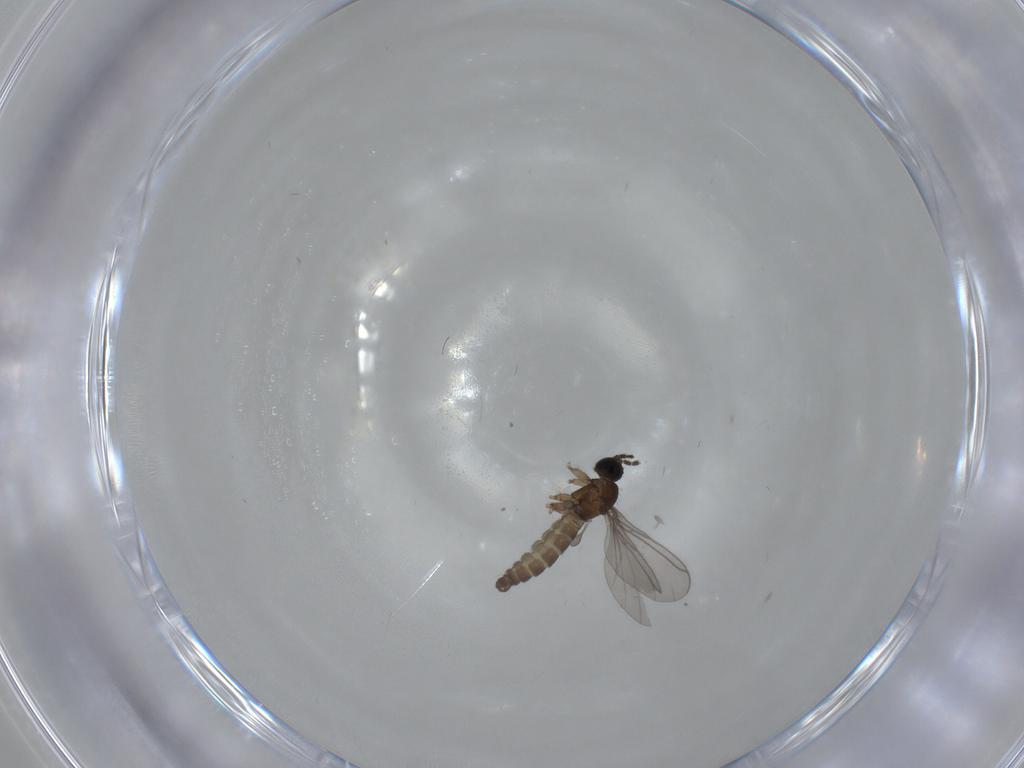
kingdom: Animalia
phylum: Arthropoda
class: Insecta
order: Diptera
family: Sciaridae
